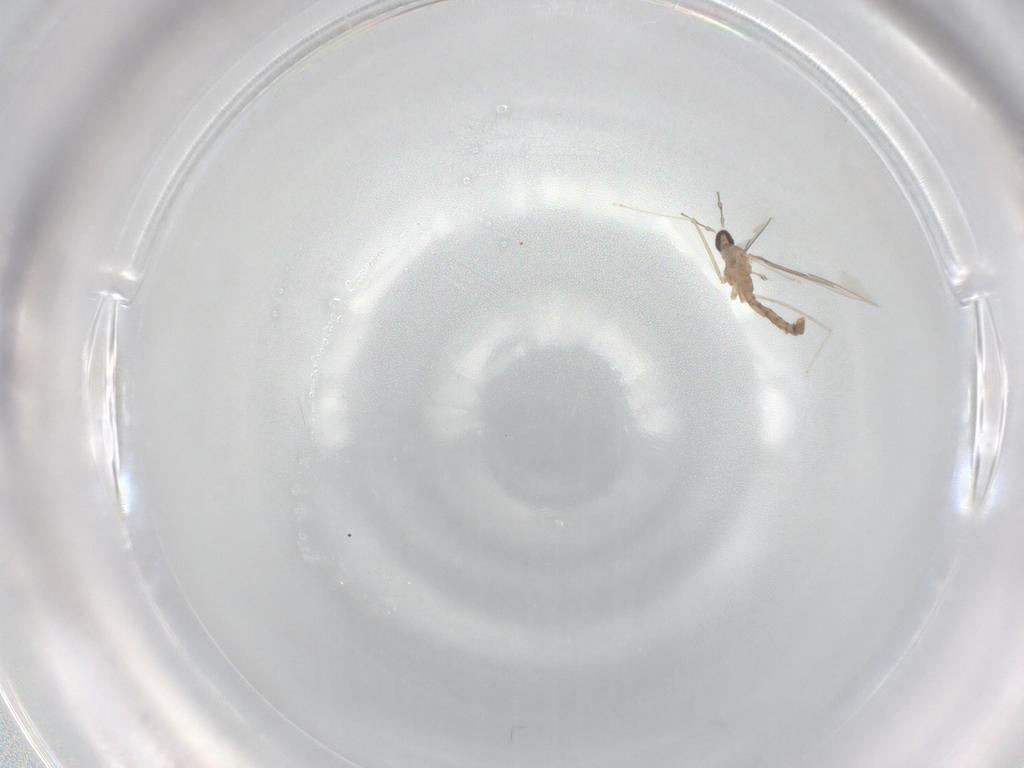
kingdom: Animalia
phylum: Arthropoda
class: Insecta
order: Diptera
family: Cecidomyiidae
